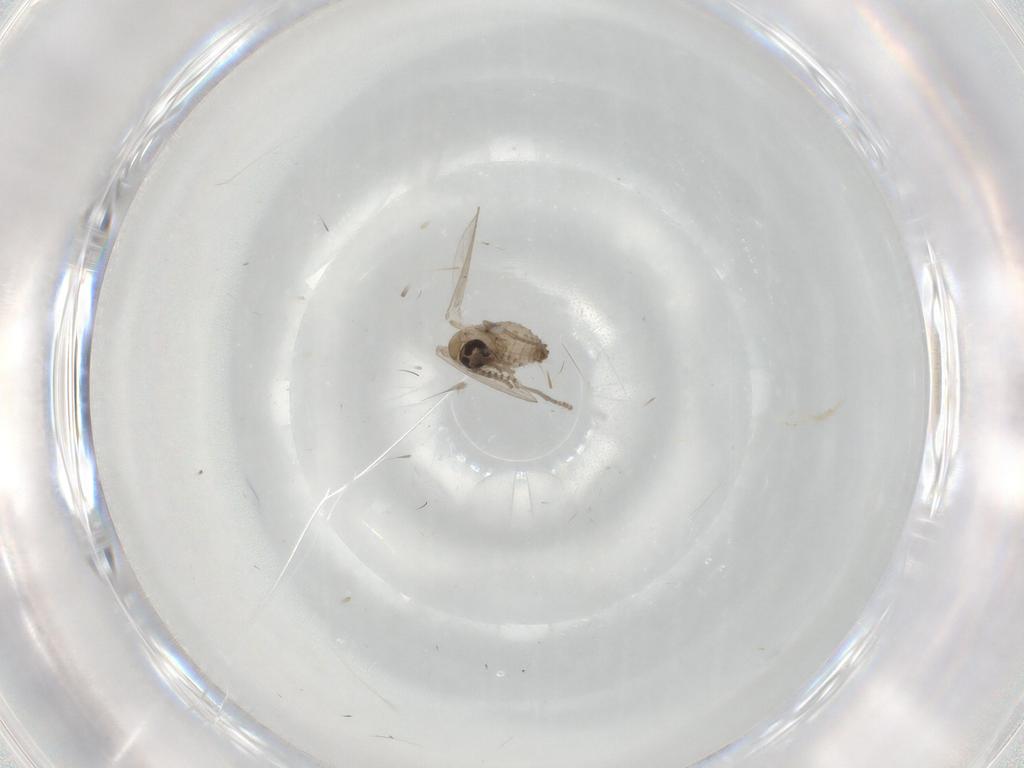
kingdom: Animalia
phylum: Arthropoda
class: Insecta
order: Diptera
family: Psychodidae
